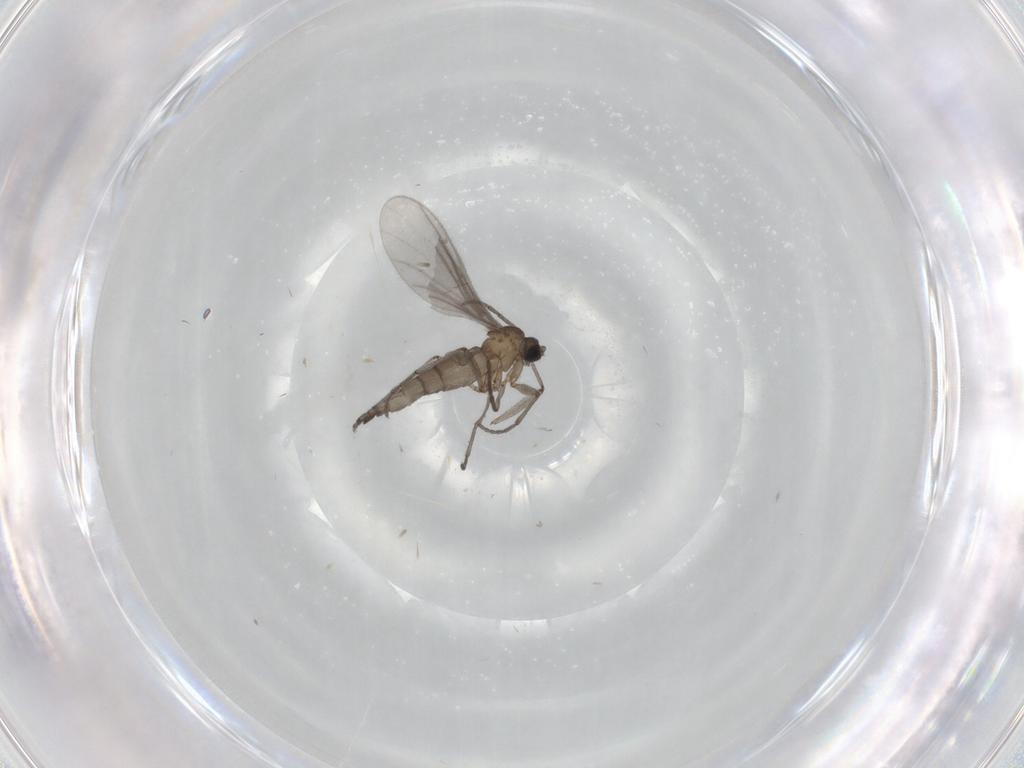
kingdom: Animalia
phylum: Arthropoda
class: Insecta
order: Diptera
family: Sciaridae
